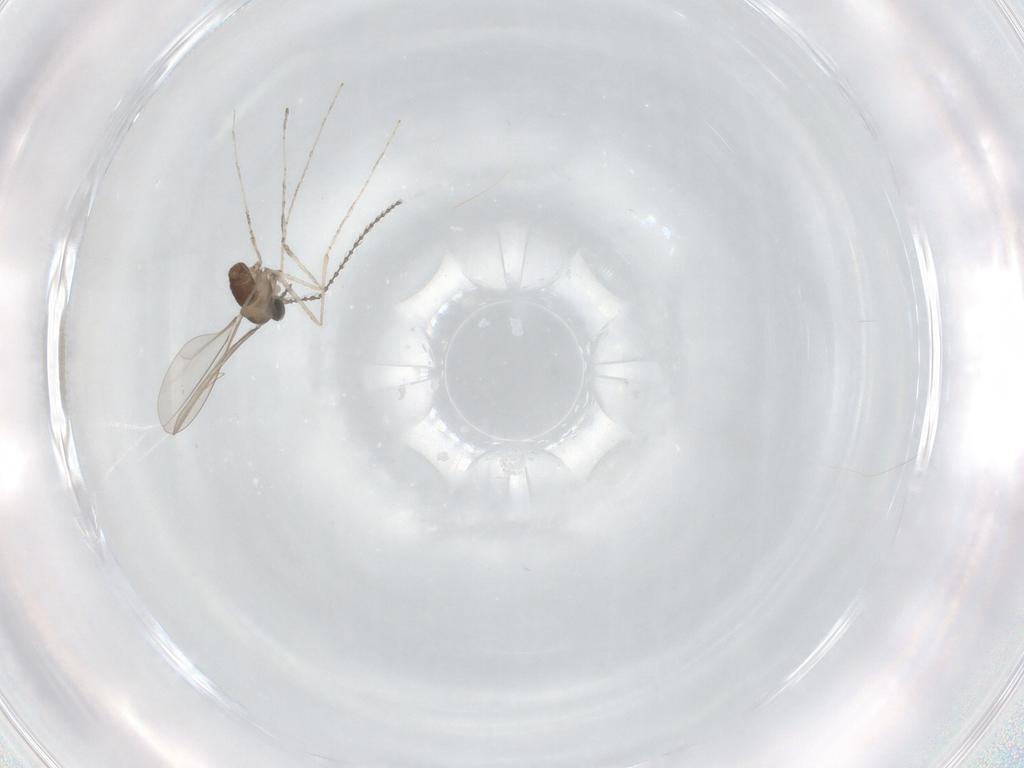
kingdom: Animalia
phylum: Arthropoda
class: Insecta
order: Diptera
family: Cecidomyiidae
